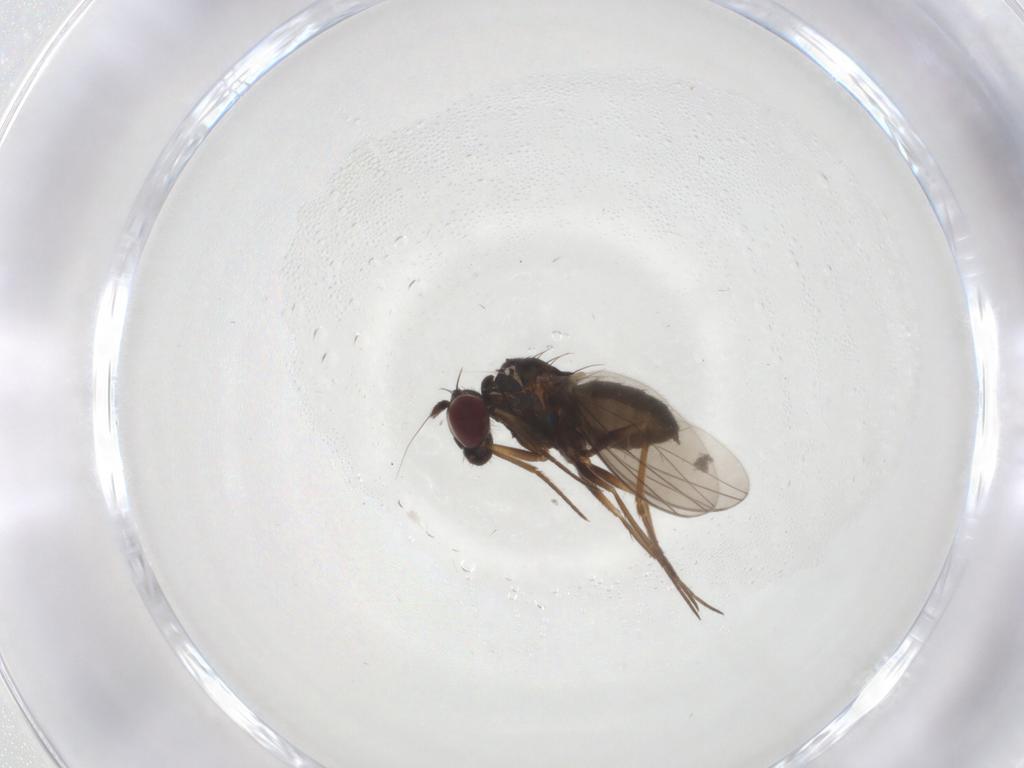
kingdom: Animalia
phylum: Arthropoda
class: Insecta
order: Diptera
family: Dolichopodidae
